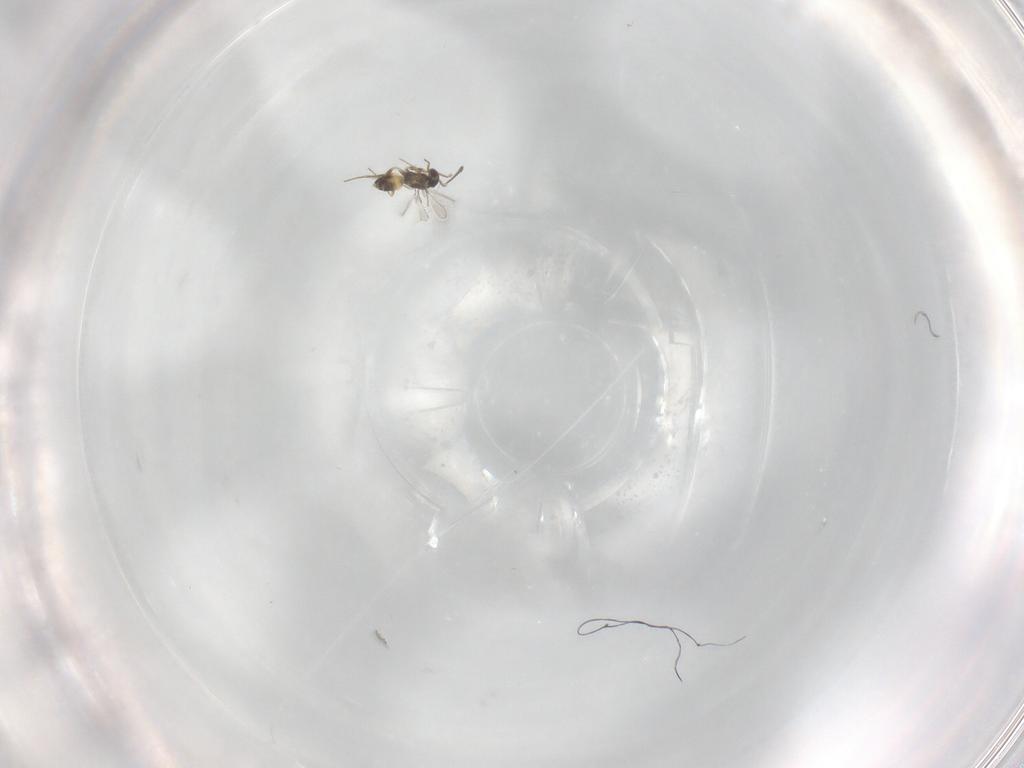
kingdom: Animalia
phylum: Arthropoda
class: Insecta
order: Hymenoptera
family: Mymaridae
